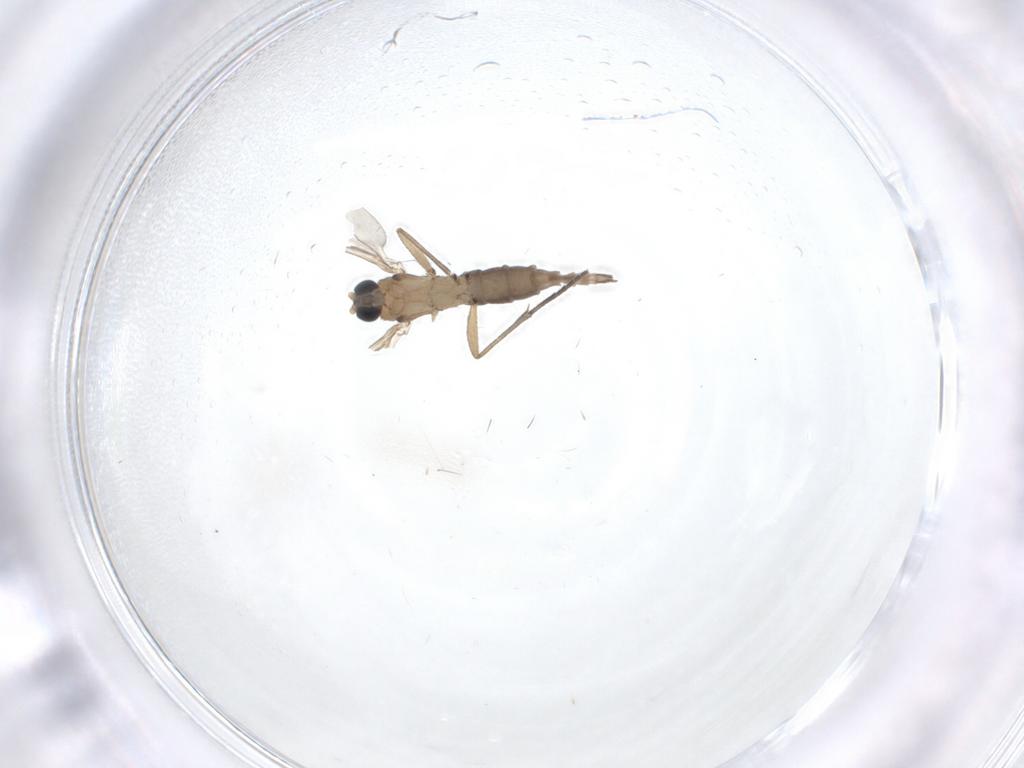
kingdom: Animalia
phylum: Arthropoda
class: Insecta
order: Diptera
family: Sciaridae
